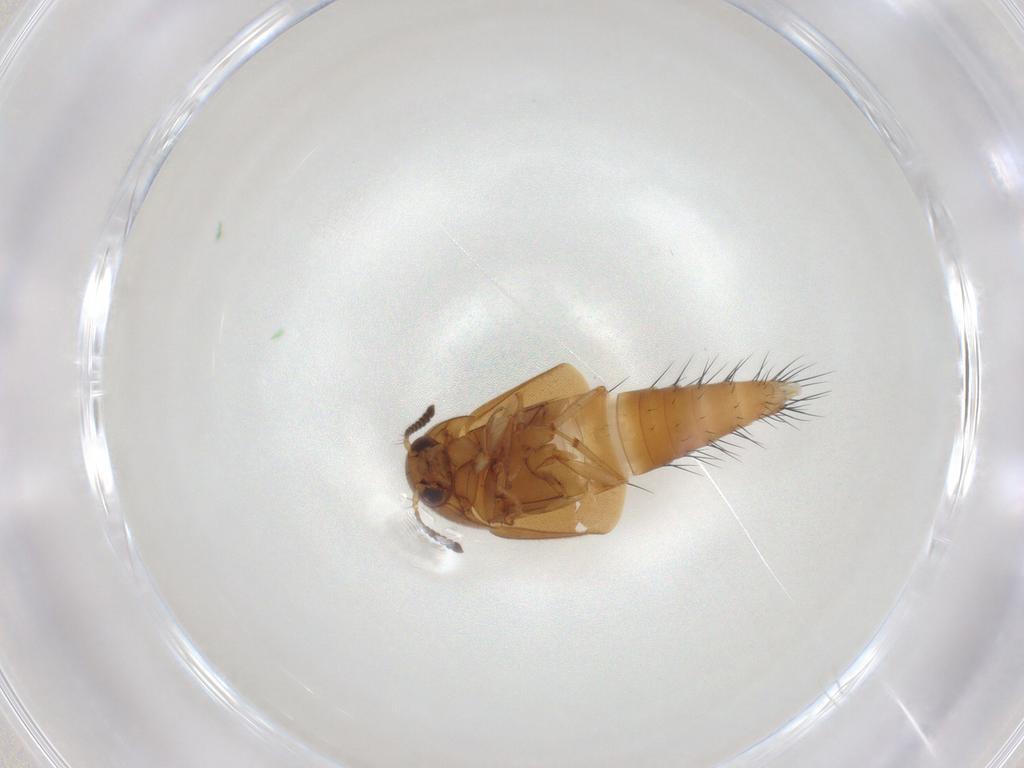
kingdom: Animalia
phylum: Arthropoda
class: Insecta
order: Coleoptera
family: Staphylinidae
